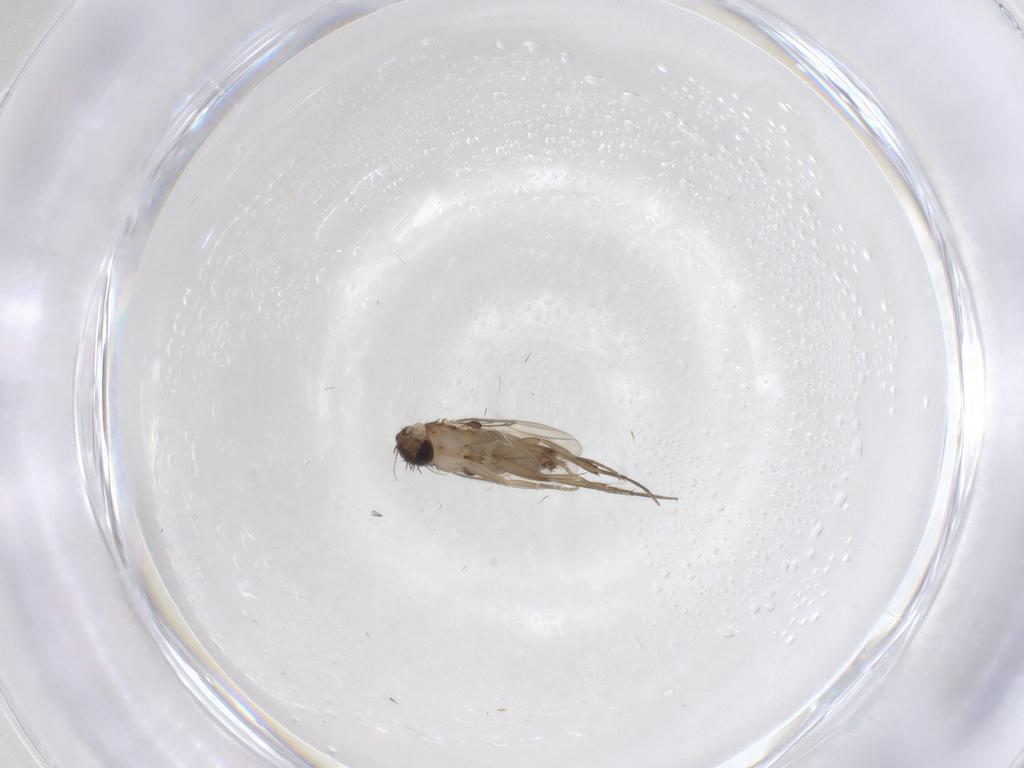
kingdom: Animalia
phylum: Arthropoda
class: Insecta
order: Diptera
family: Phoridae
